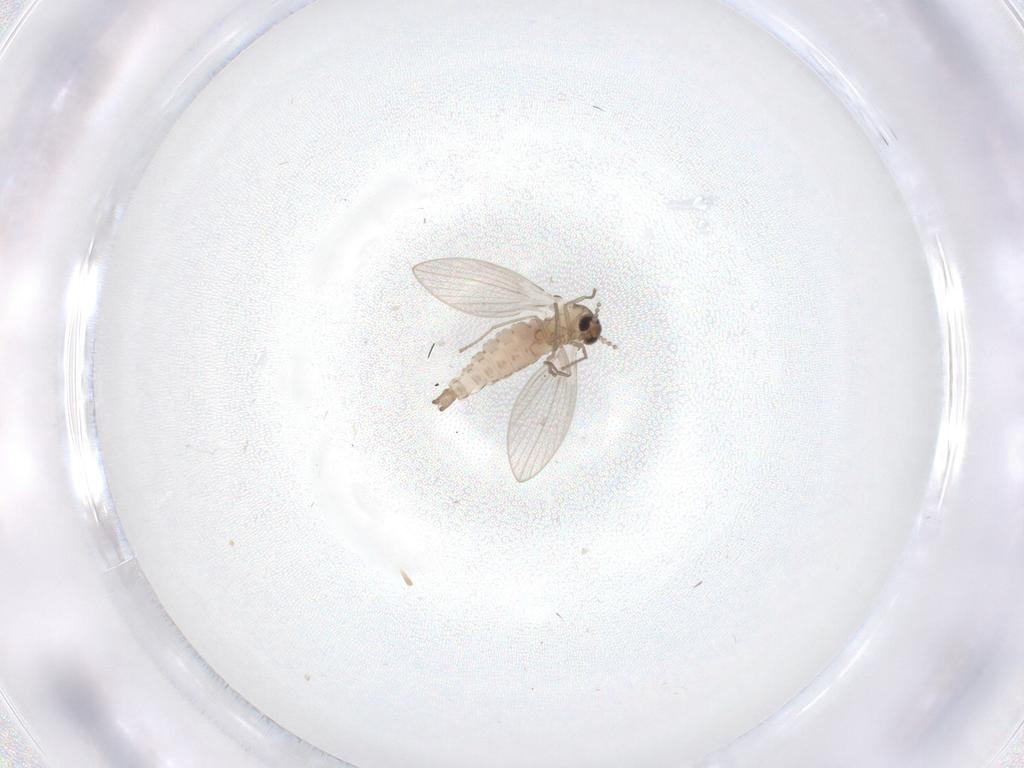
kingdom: Animalia
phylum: Arthropoda
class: Insecta
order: Diptera
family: Psychodidae
